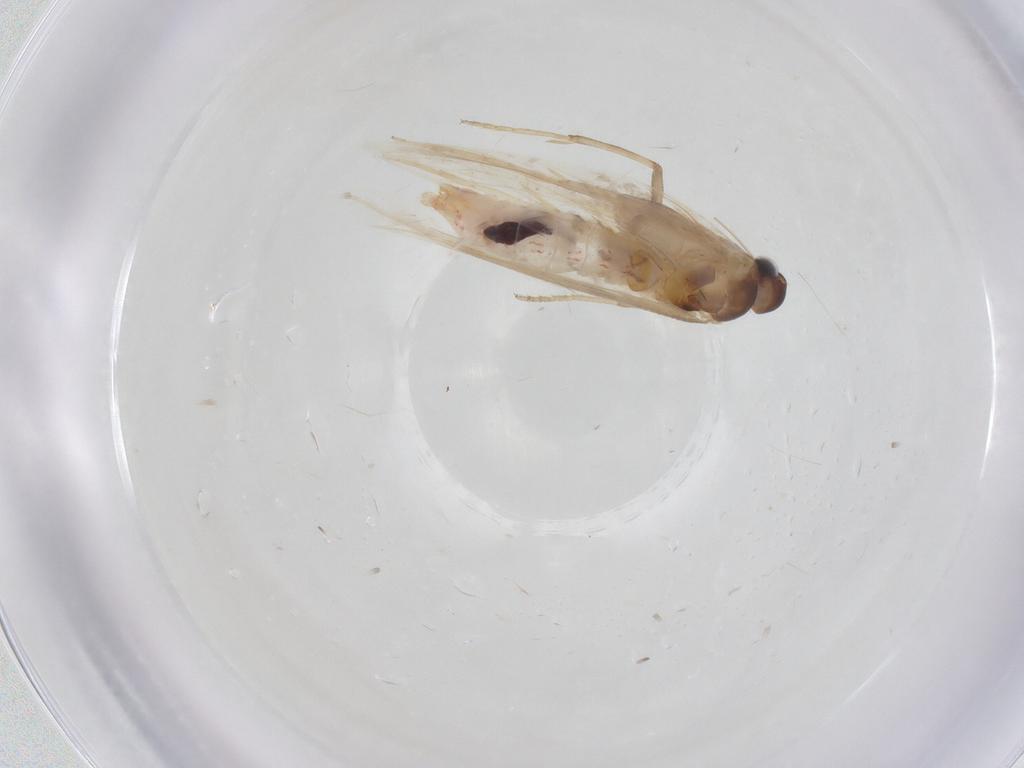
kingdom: Animalia
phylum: Arthropoda
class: Insecta
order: Lepidoptera
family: Gelechiidae
